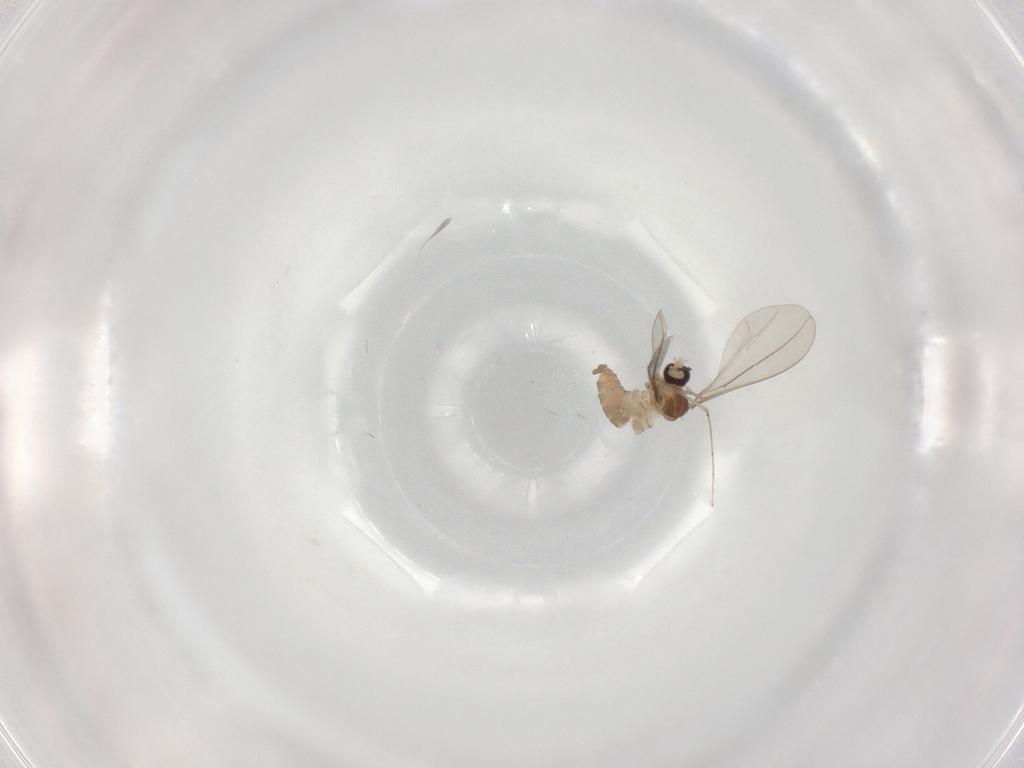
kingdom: Animalia
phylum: Arthropoda
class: Insecta
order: Diptera
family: Cecidomyiidae
